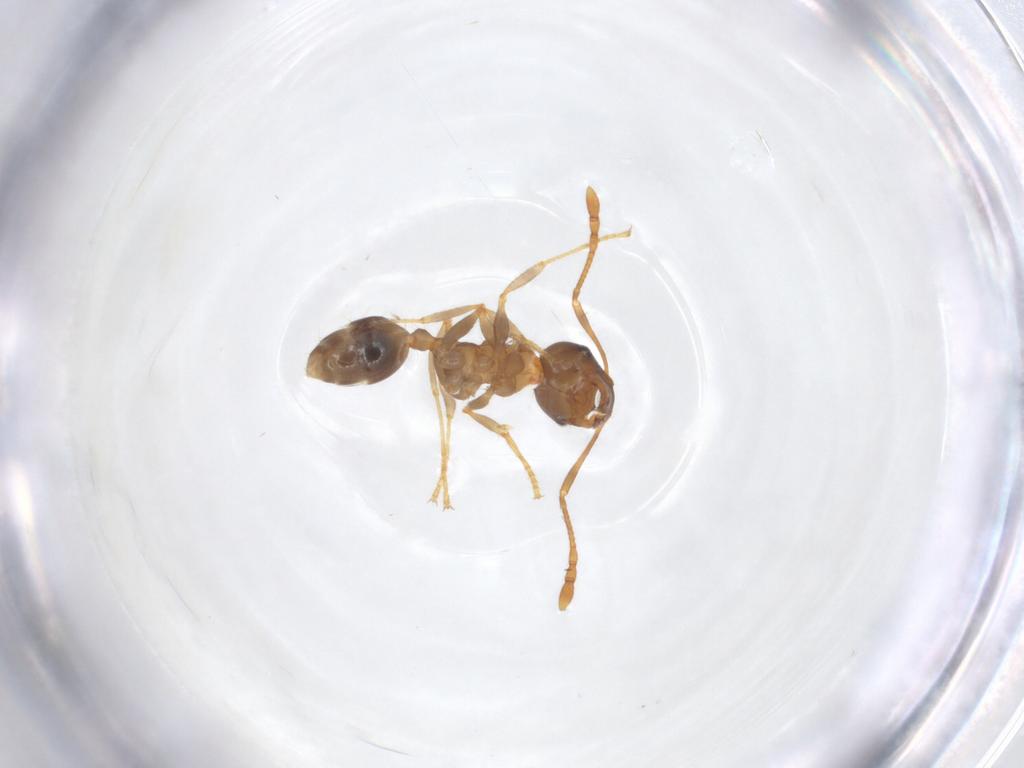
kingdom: Animalia
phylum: Arthropoda
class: Insecta
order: Hymenoptera
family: Formicidae
